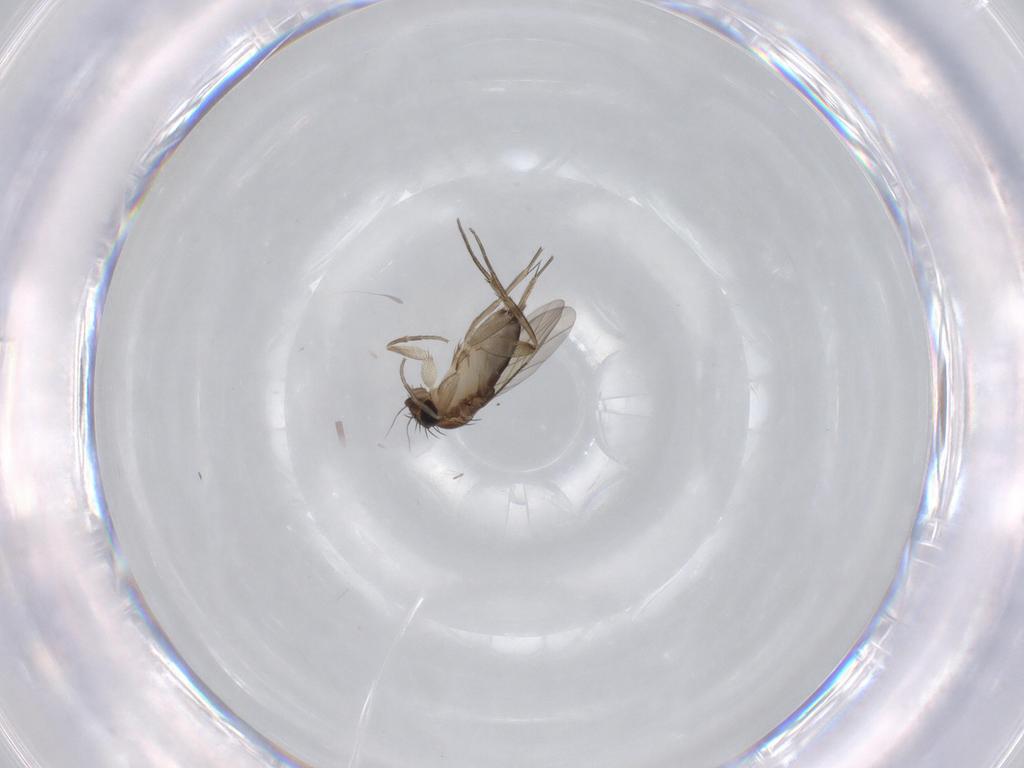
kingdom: Animalia
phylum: Arthropoda
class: Insecta
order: Diptera
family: Phoridae
